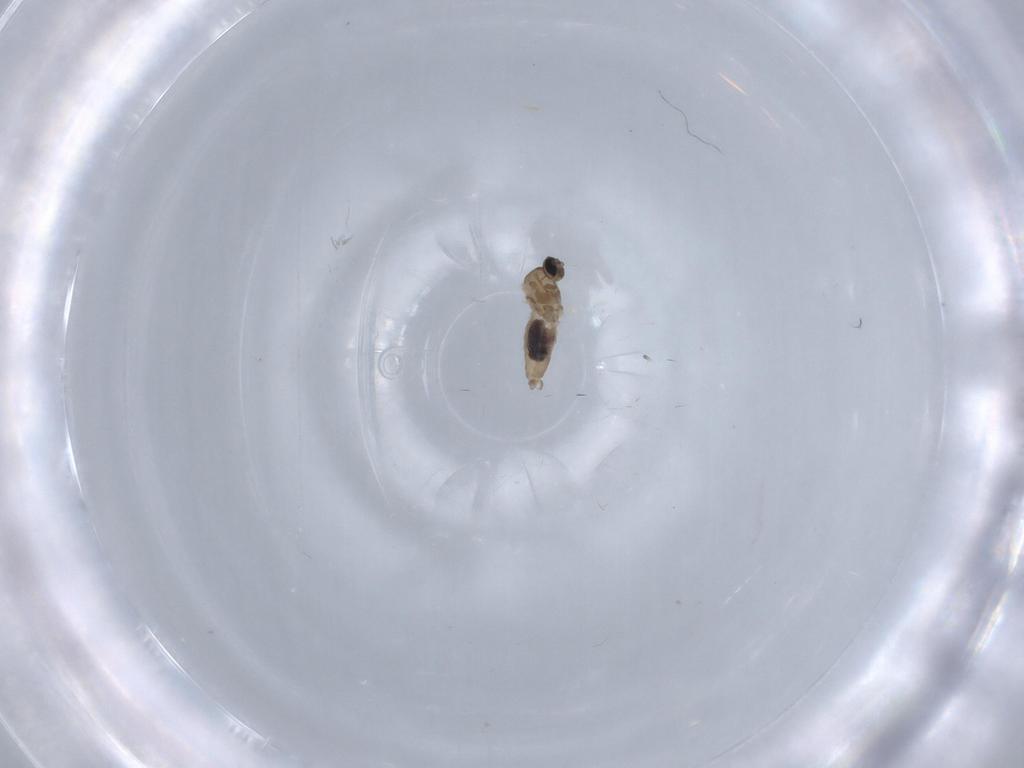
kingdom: Animalia
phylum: Arthropoda
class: Insecta
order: Diptera
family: Cecidomyiidae
